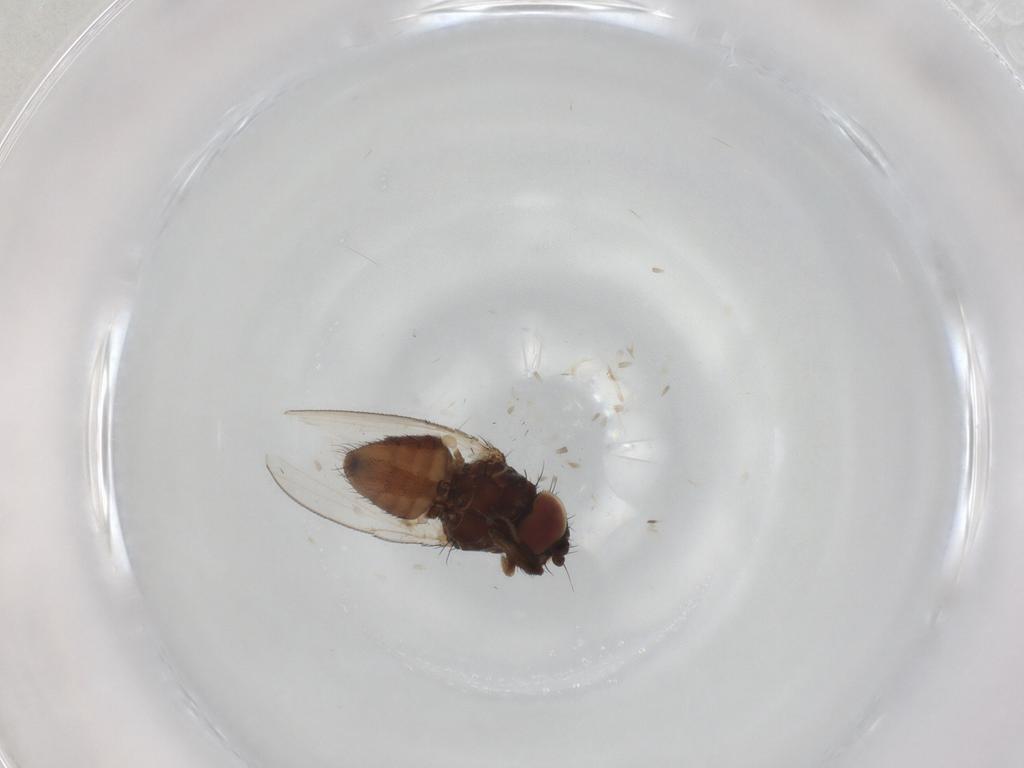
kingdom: Animalia
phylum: Arthropoda
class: Insecta
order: Diptera
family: Milichiidae
